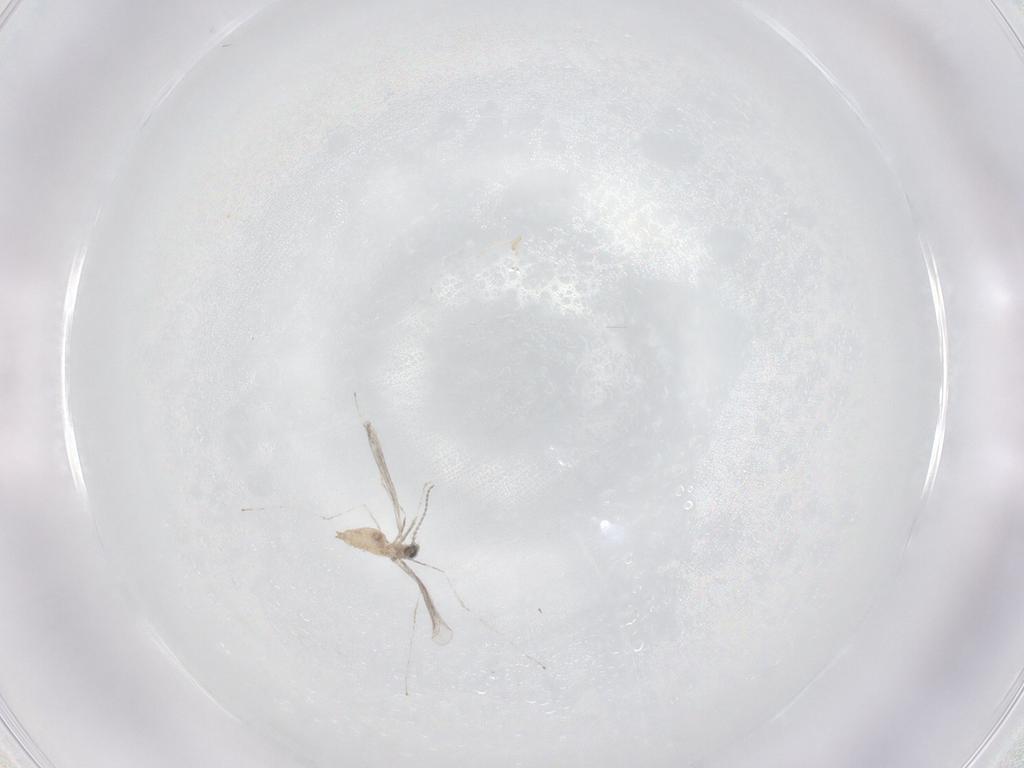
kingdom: Animalia
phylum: Arthropoda
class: Insecta
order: Diptera
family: Cecidomyiidae
